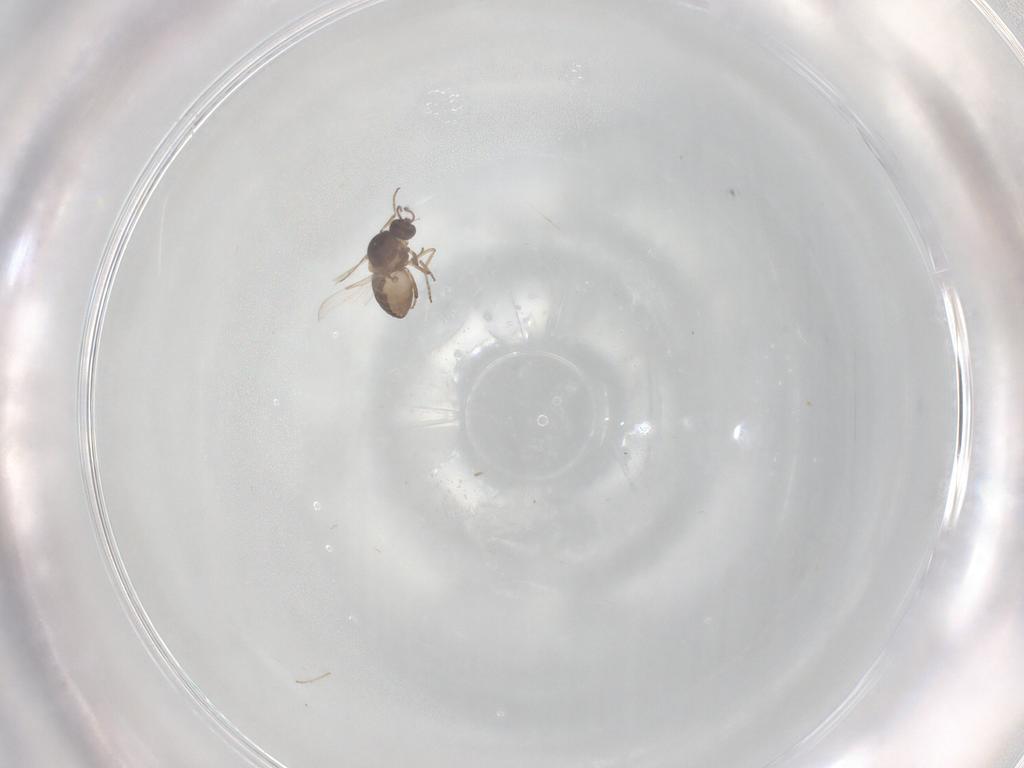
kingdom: Animalia
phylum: Arthropoda
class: Insecta
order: Diptera
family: Ceratopogonidae
